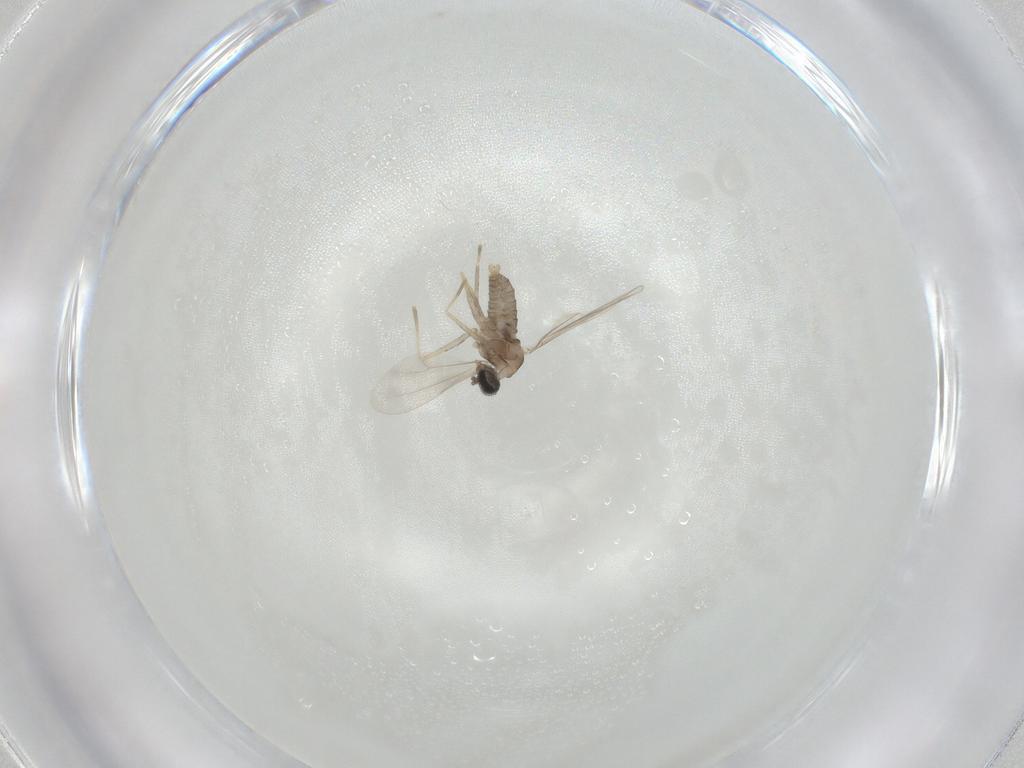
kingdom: Animalia
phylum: Arthropoda
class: Insecta
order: Diptera
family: Cecidomyiidae
